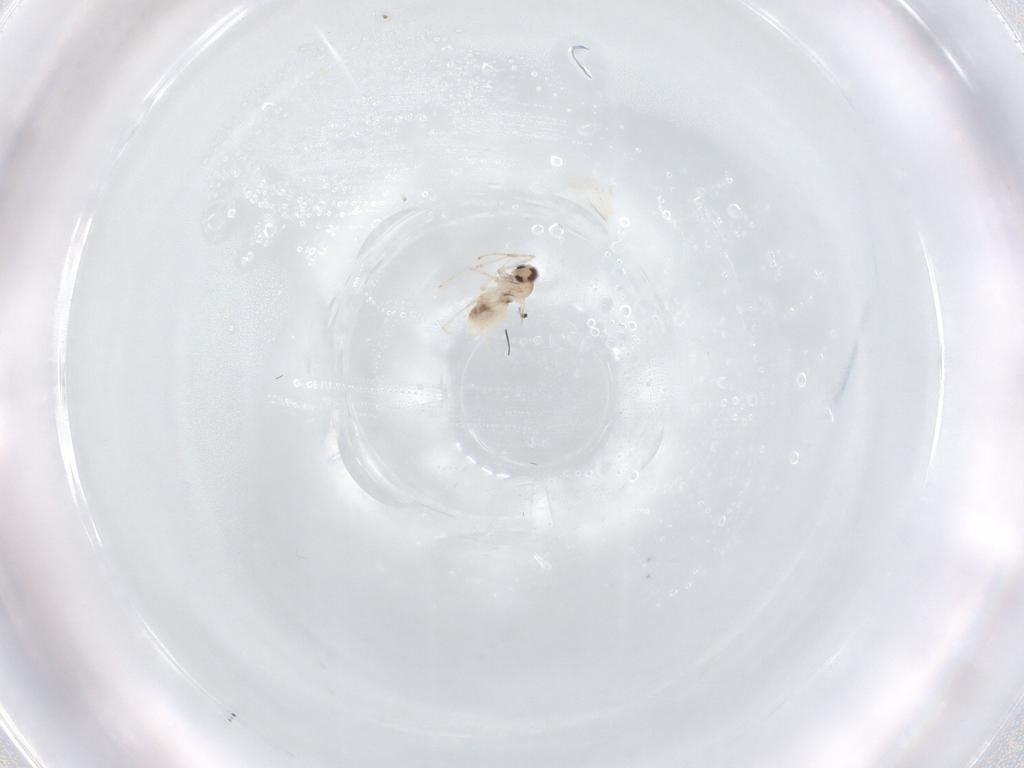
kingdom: Animalia
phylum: Arthropoda
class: Insecta
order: Diptera
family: Cecidomyiidae
